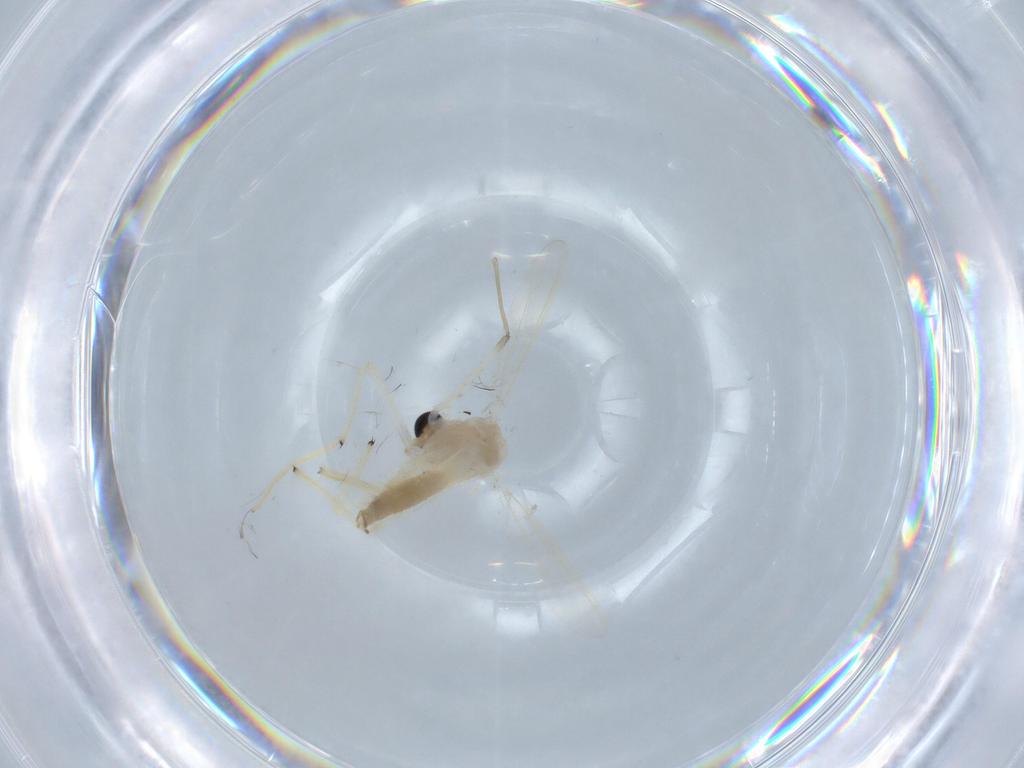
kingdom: Animalia
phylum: Arthropoda
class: Insecta
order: Diptera
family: Chironomidae
